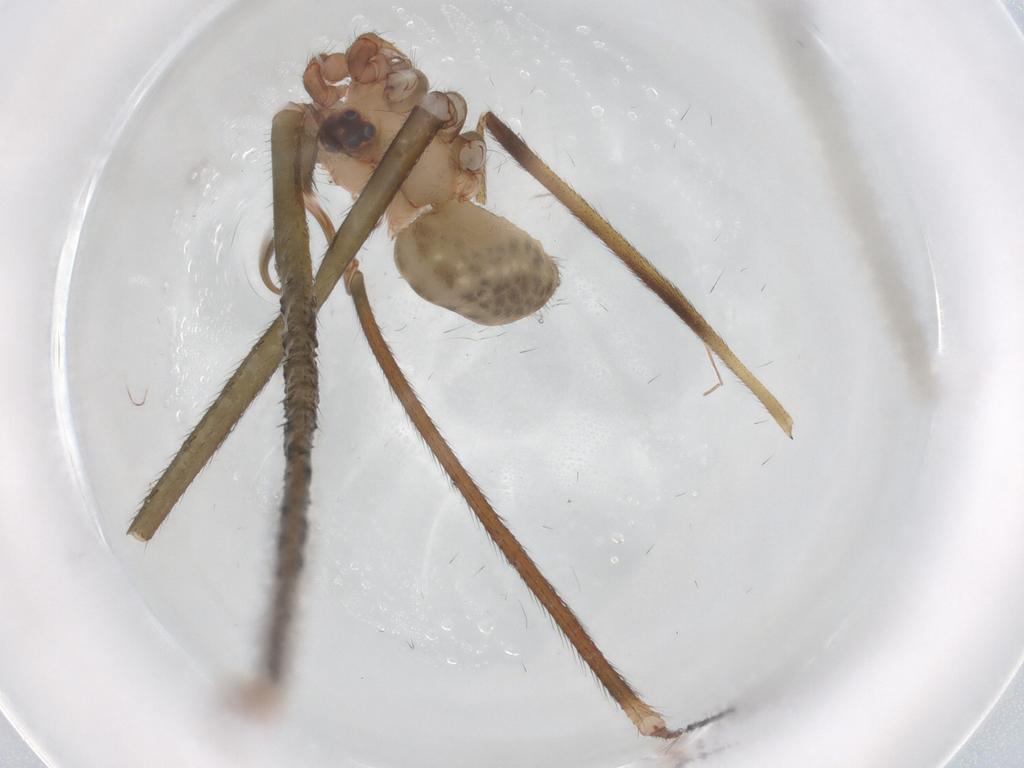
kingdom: Animalia
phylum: Arthropoda
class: Arachnida
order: Araneae
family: Pholcidae
